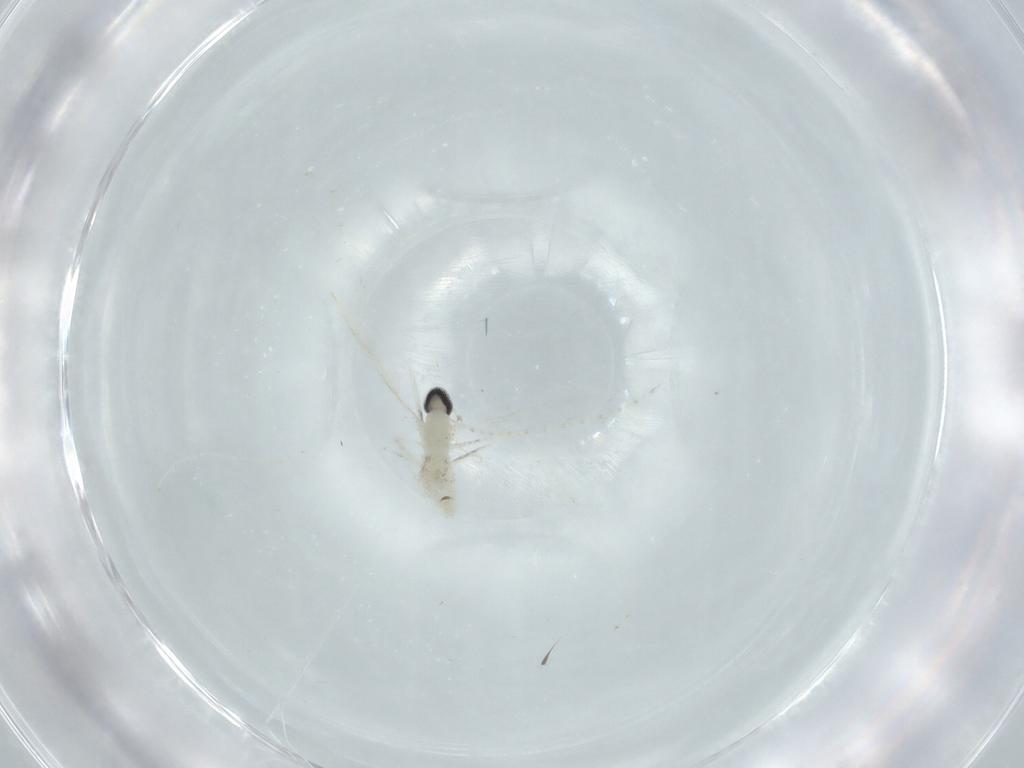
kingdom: Animalia
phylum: Arthropoda
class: Insecta
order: Diptera
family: Cecidomyiidae
